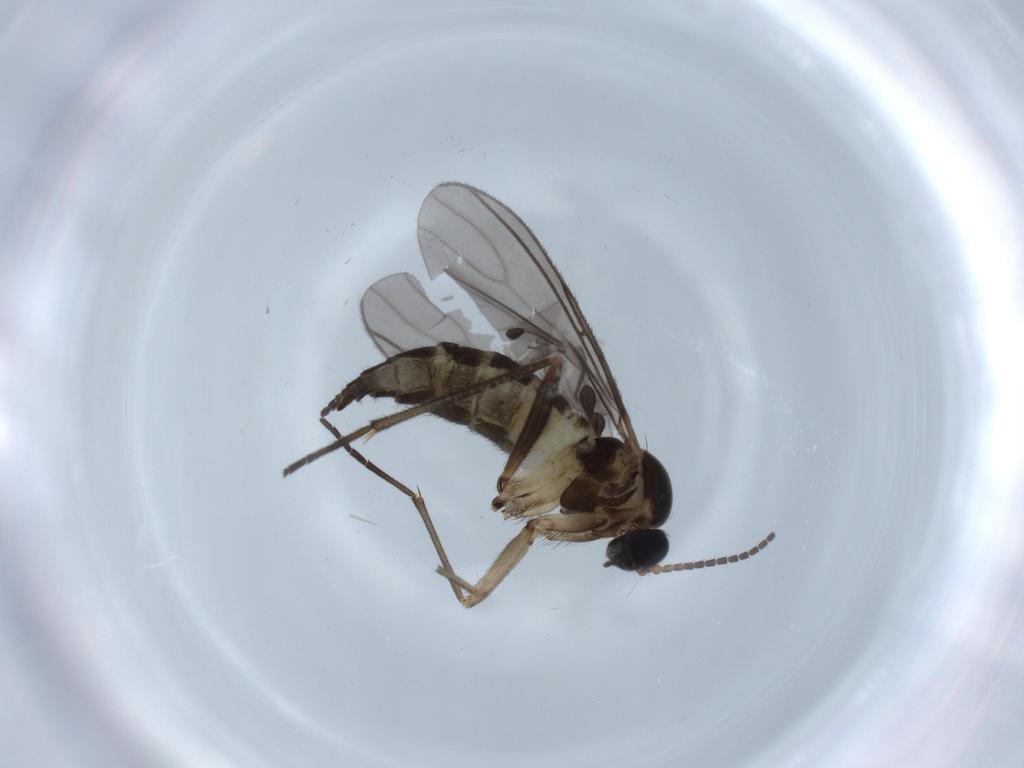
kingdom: Animalia
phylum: Arthropoda
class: Insecta
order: Diptera
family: Sciaridae
